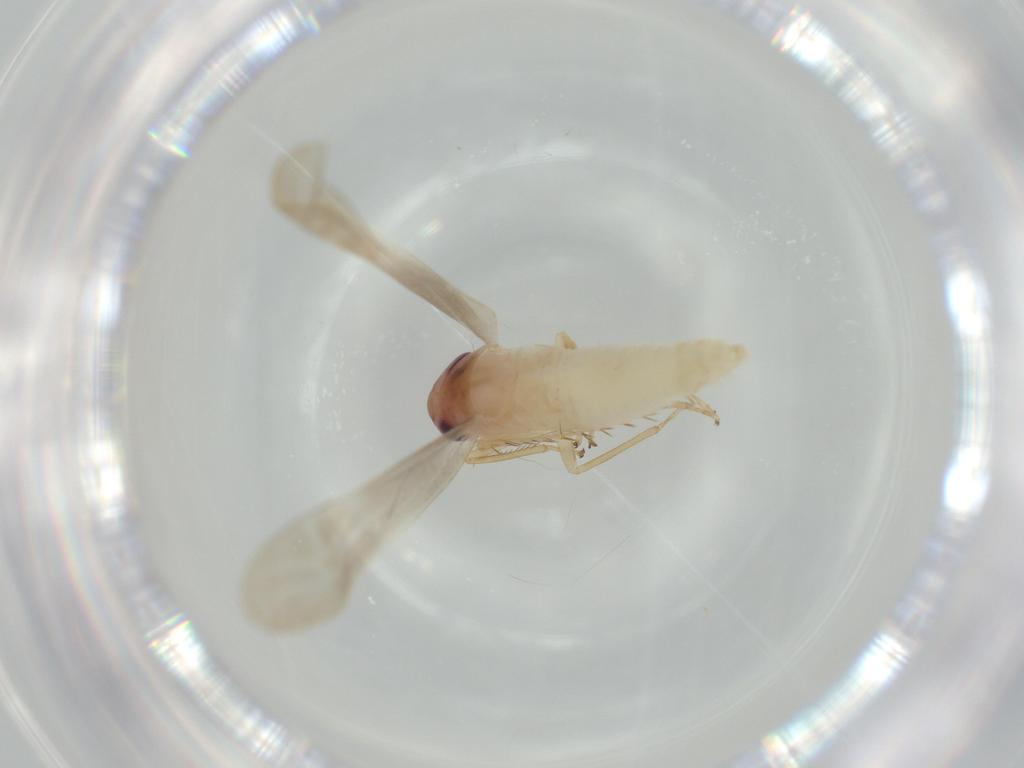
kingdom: Animalia
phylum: Arthropoda
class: Insecta
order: Hemiptera
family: Cicadellidae
